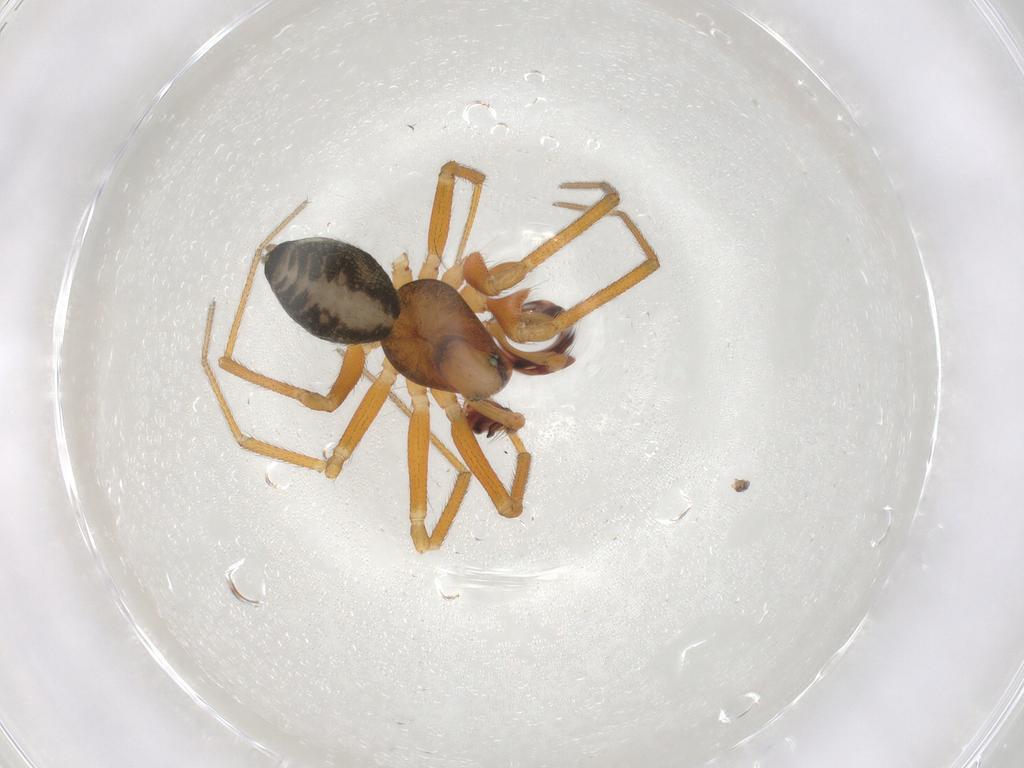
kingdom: Animalia
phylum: Arthropoda
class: Arachnida
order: Araneae
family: Linyphiidae
